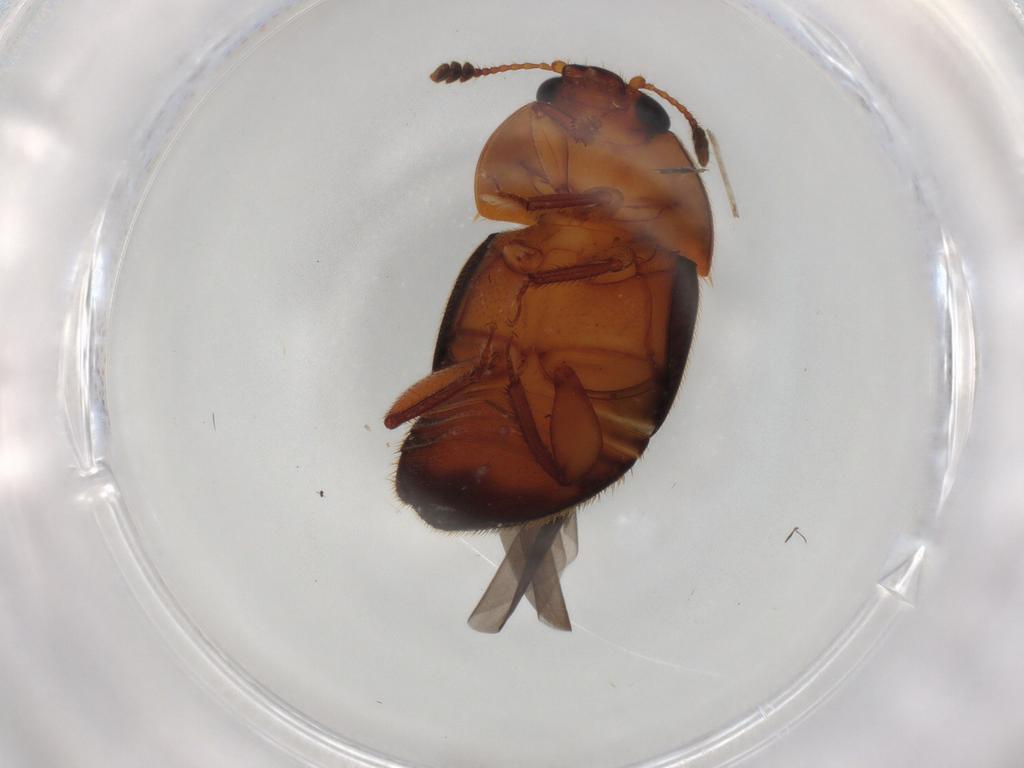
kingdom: Animalia
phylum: Arthropoda
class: Insecta
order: Coleoptera
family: Nitidulidae
